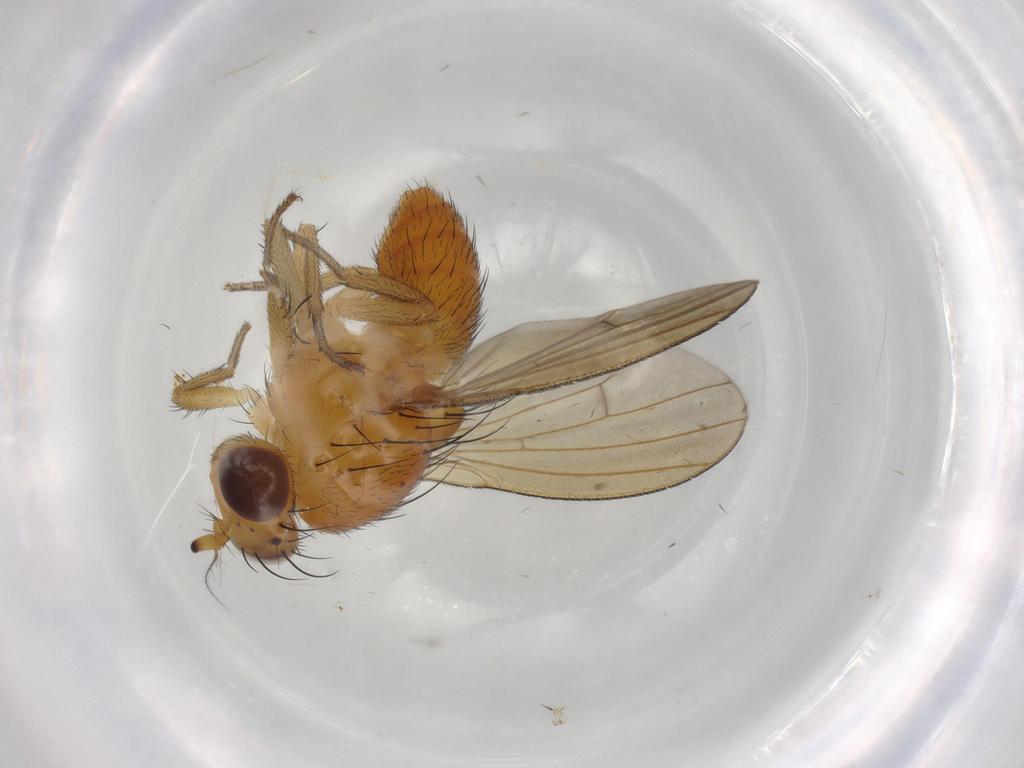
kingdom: Animalia
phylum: Arthropoda
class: Insecta
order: Diptera
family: Lauxaniidae
